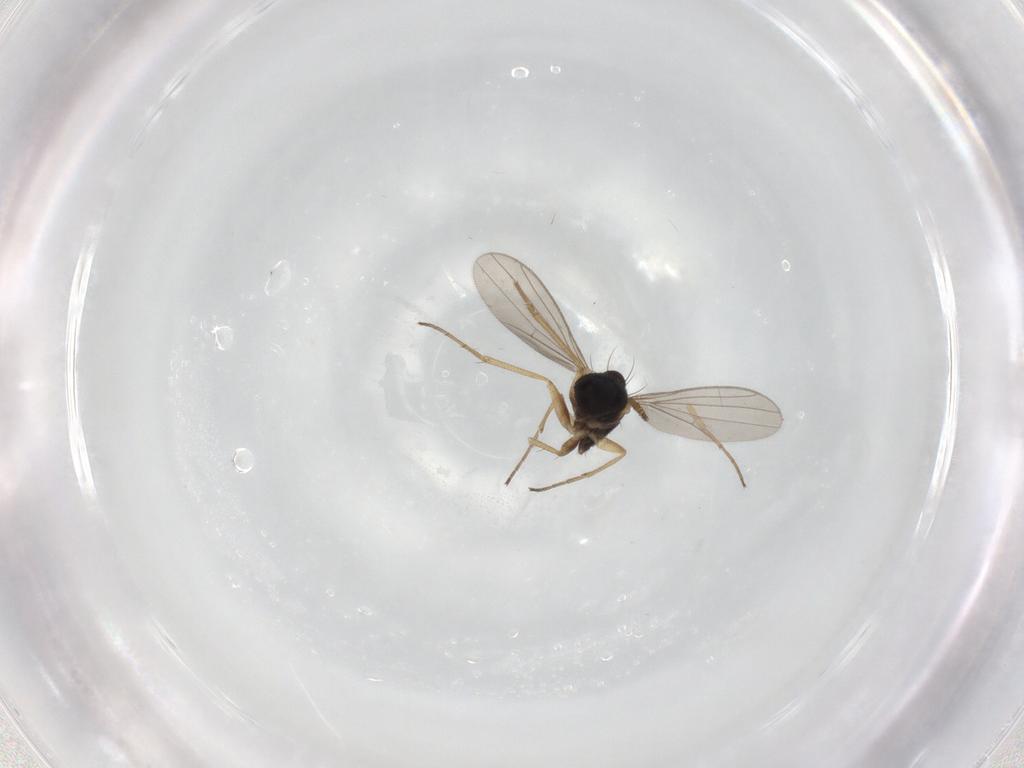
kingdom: Animalia
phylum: Arthropoda
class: Insecta
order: Diptera
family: Dolichopodidae
